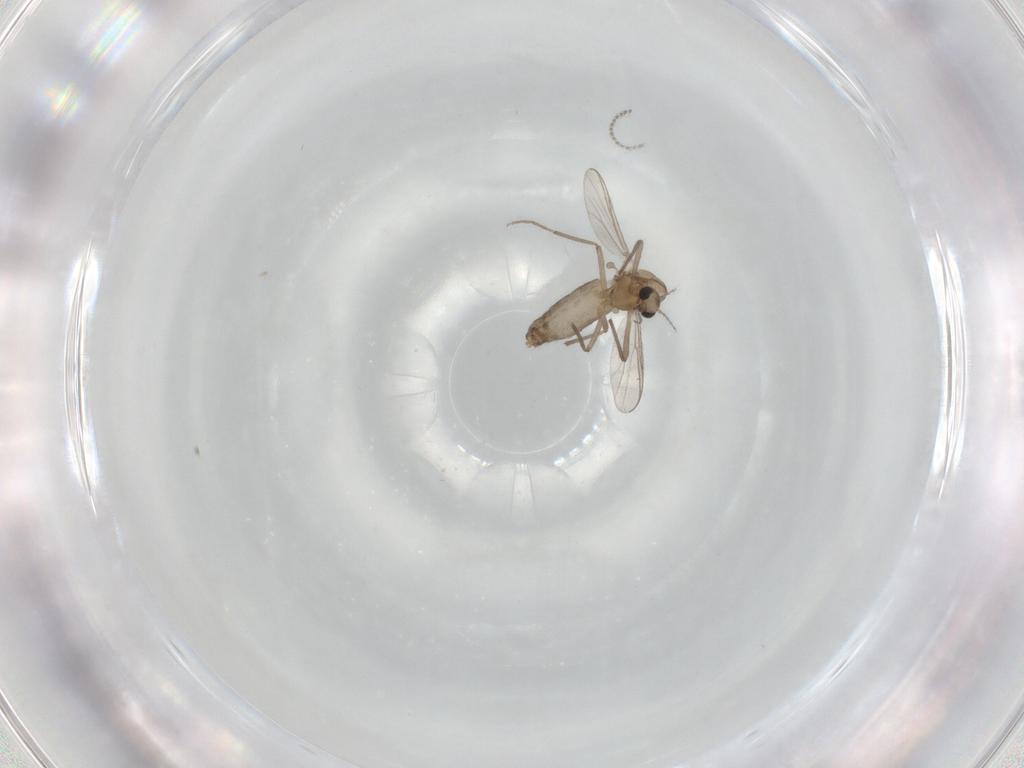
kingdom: Animalia
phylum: Arthropoda
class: Insecta
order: Diptera
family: Chironomidae
